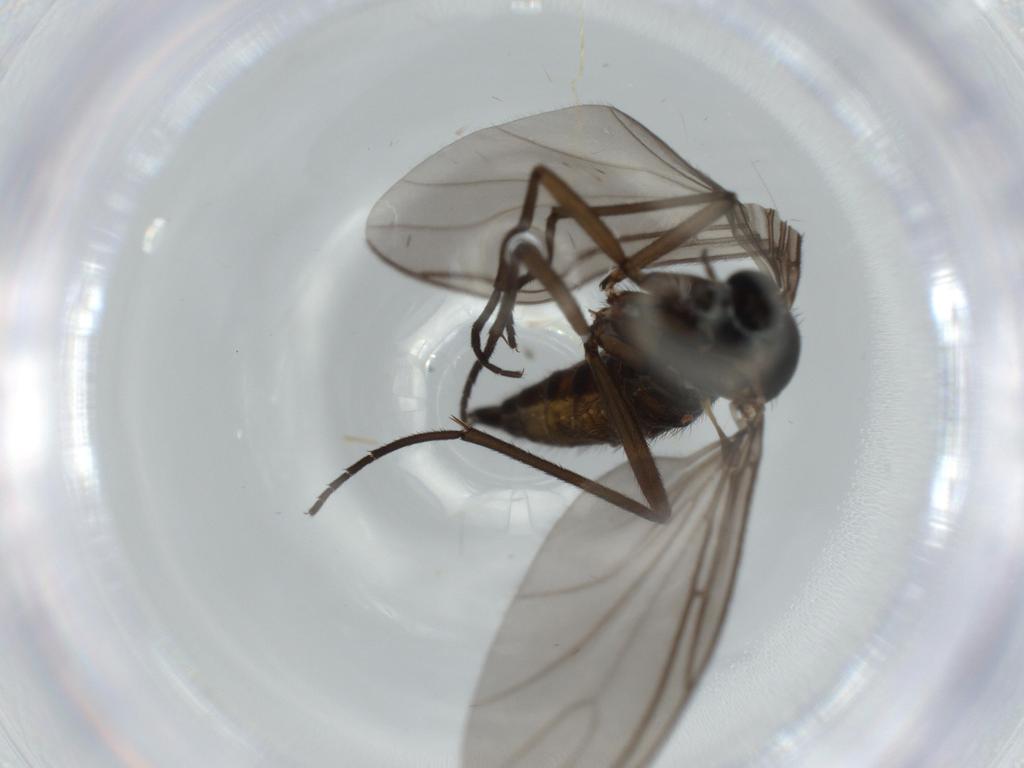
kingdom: Animalia
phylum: Arthropoda
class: Insecta
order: Diptera
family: Sciaridae
